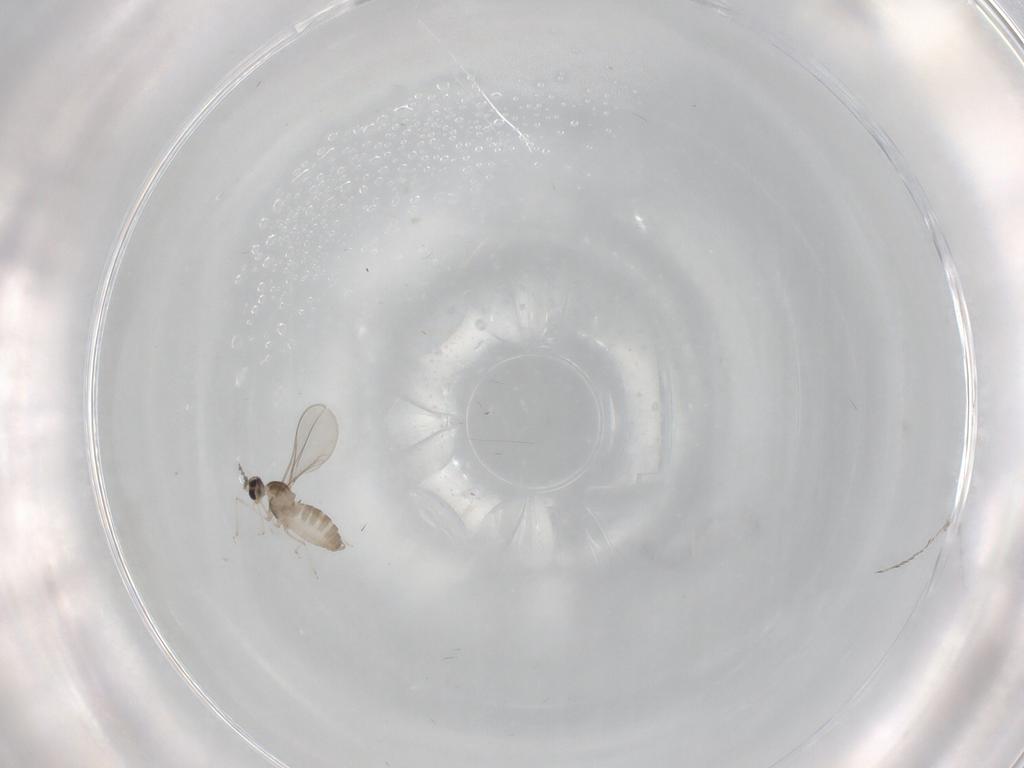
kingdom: Animalia
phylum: Arthropoda
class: Insecta
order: Diptera
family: Cecidomyiidae
